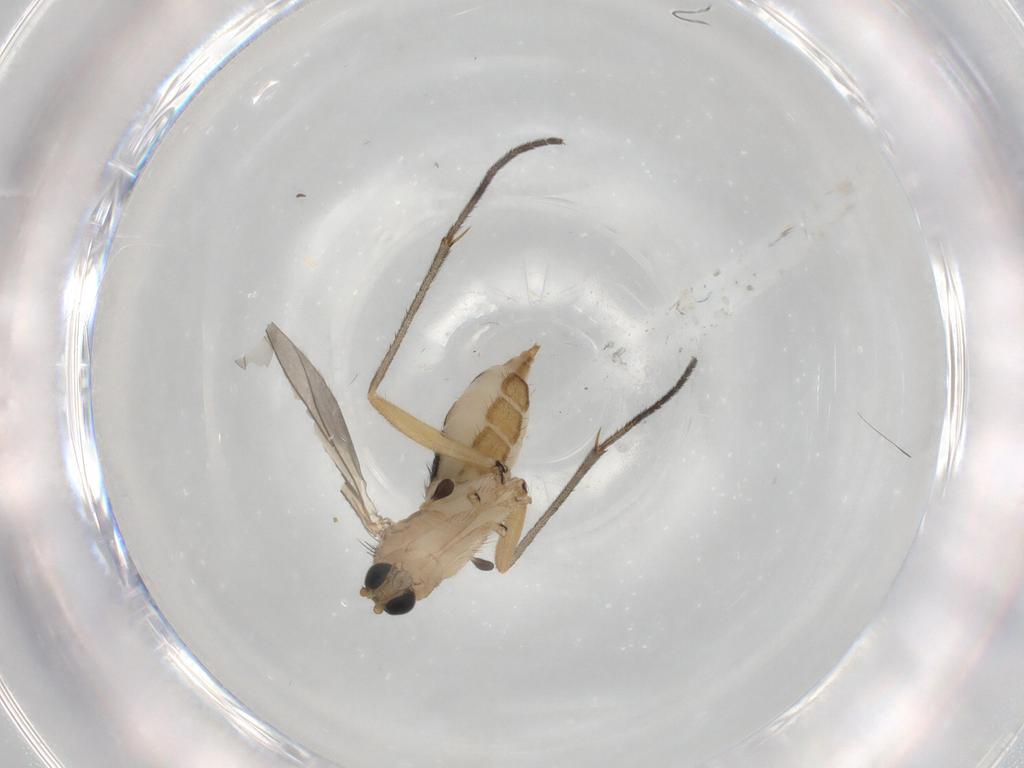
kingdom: Animalia
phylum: Arthropoda
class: Insecta
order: Diptera
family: Sciaridae
